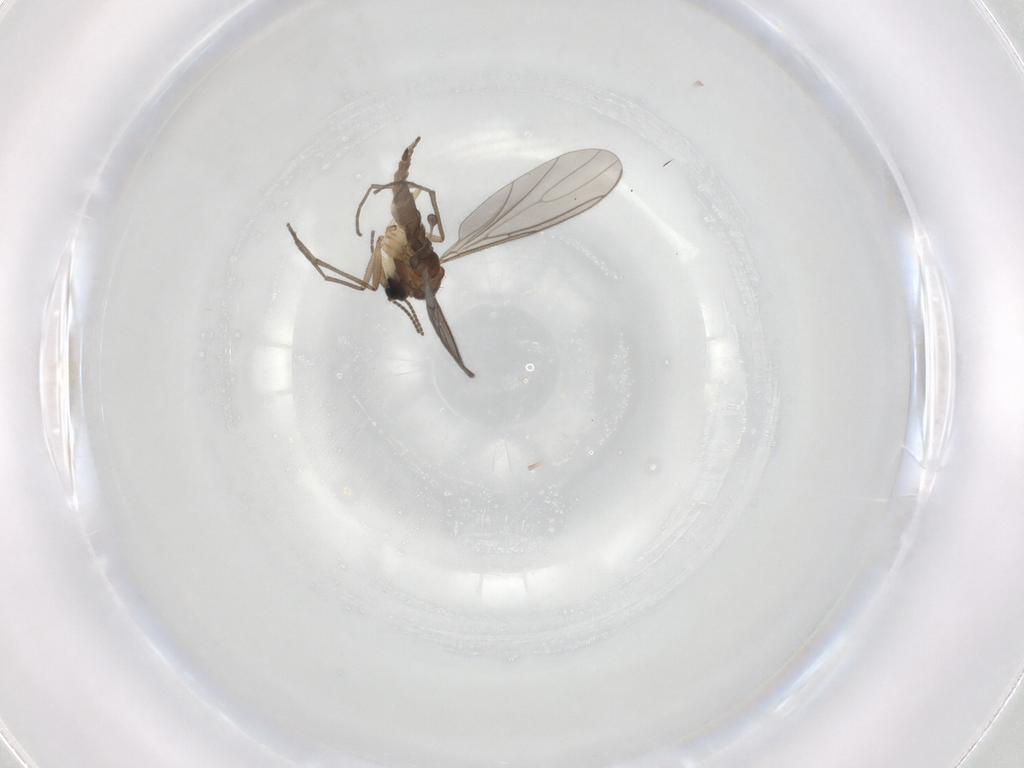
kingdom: Animalia
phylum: Arthropoda
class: Insecta
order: Diptera
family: Sciaridae
